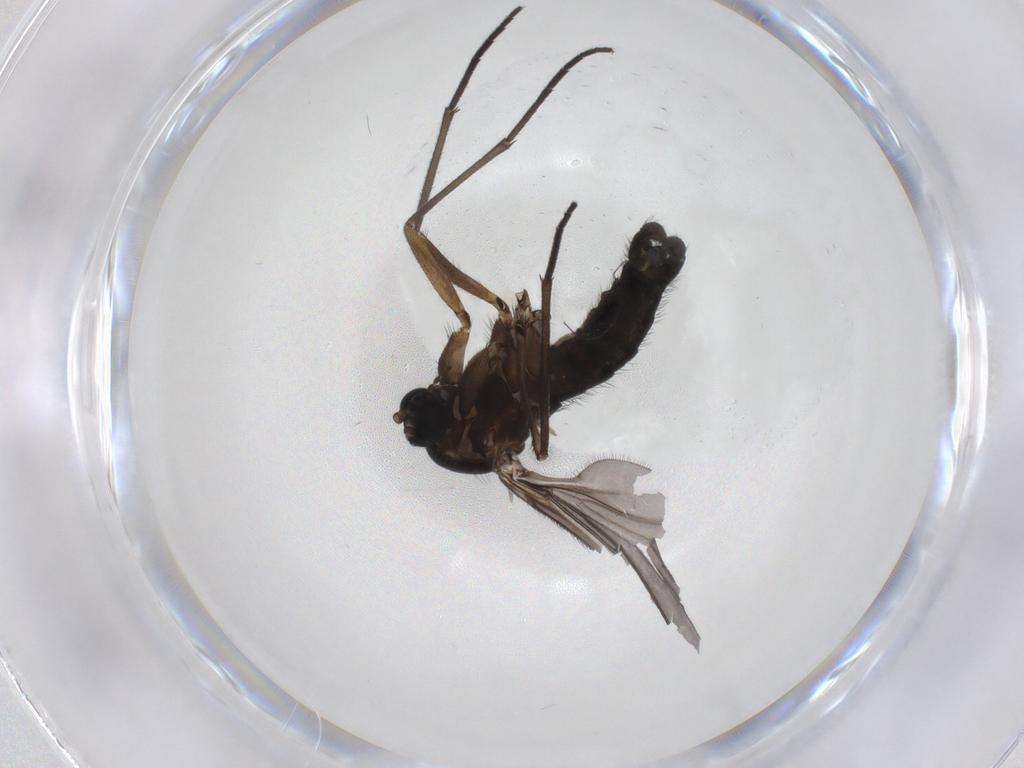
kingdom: Animalia
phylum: Arthropoda
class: Insecta
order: Diptera
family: Sciaridae
